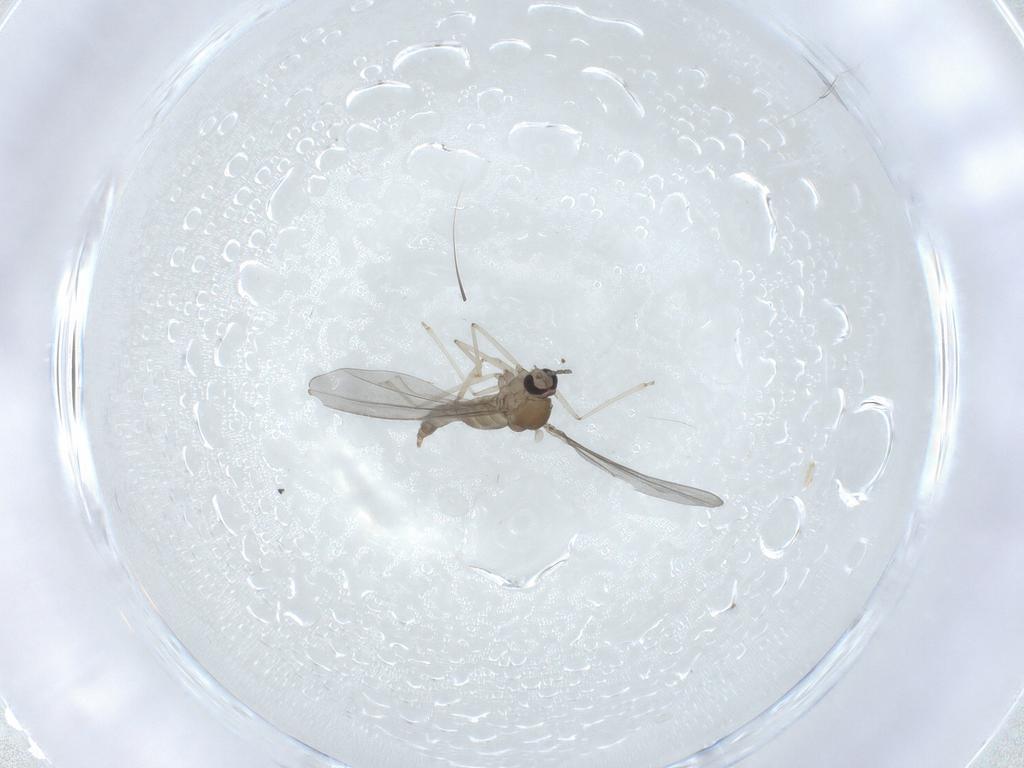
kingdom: Animalia
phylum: Arthropoda
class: Insecta
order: Diptera
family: Cecidomyiidae
